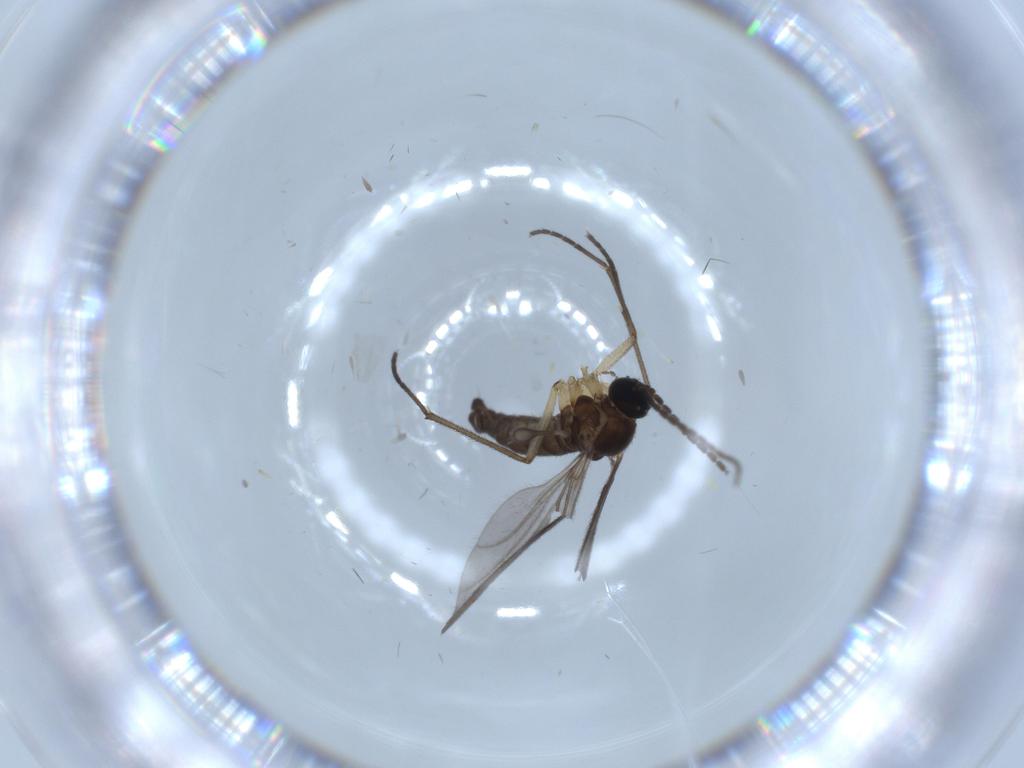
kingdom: Animalia
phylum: Arthropoda
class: Insecta
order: Diptera
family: Sciaridae
